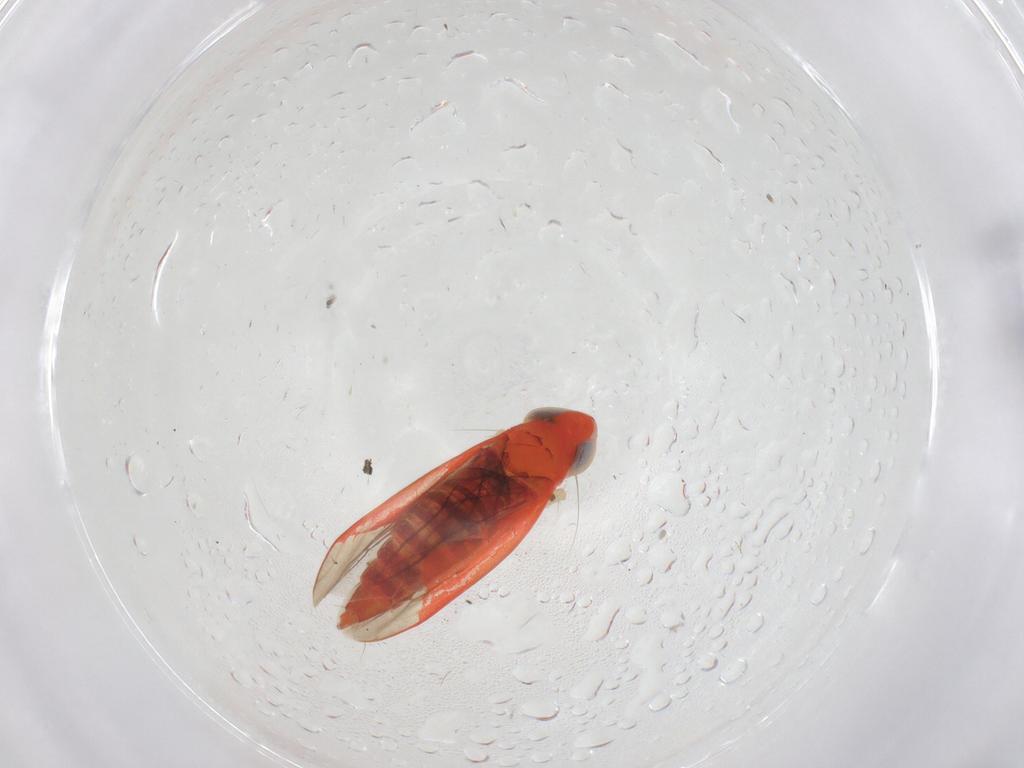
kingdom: Animalia
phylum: Arthropoda
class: Insecta
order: Hemiptera
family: Cicadellidae
